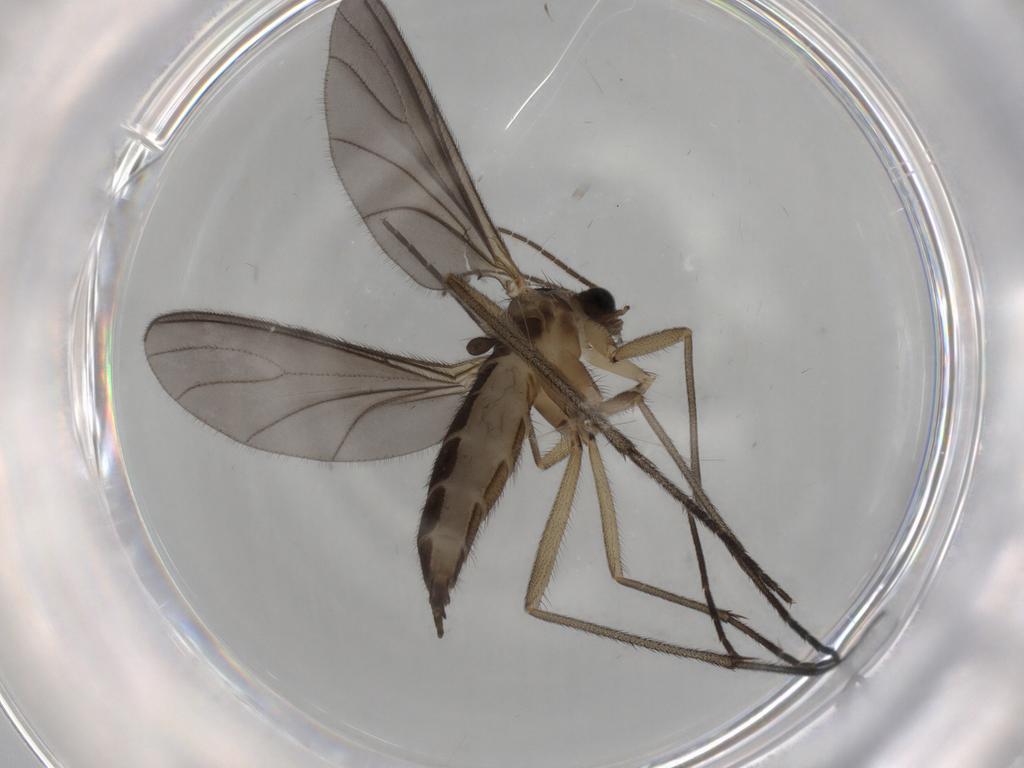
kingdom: Animalia
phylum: Arthropoda
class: Insecta
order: Diptera
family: Sciaridae
